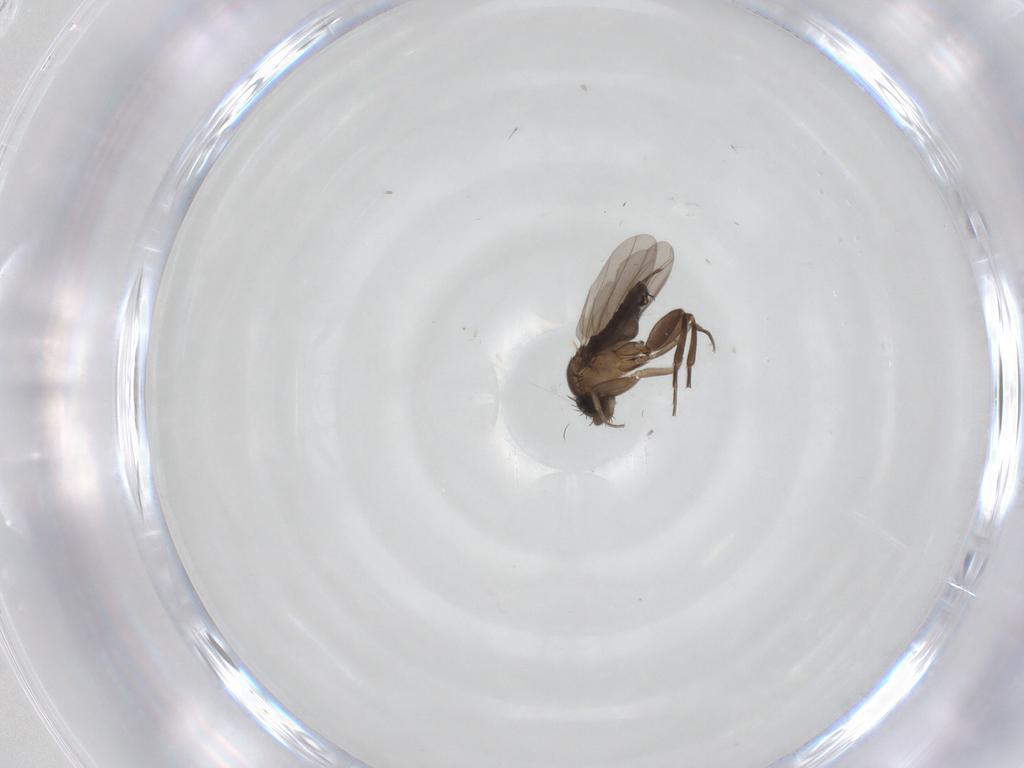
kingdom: Animalia
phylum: Arthropoda
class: Insecta
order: Diptera
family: Phoridae
